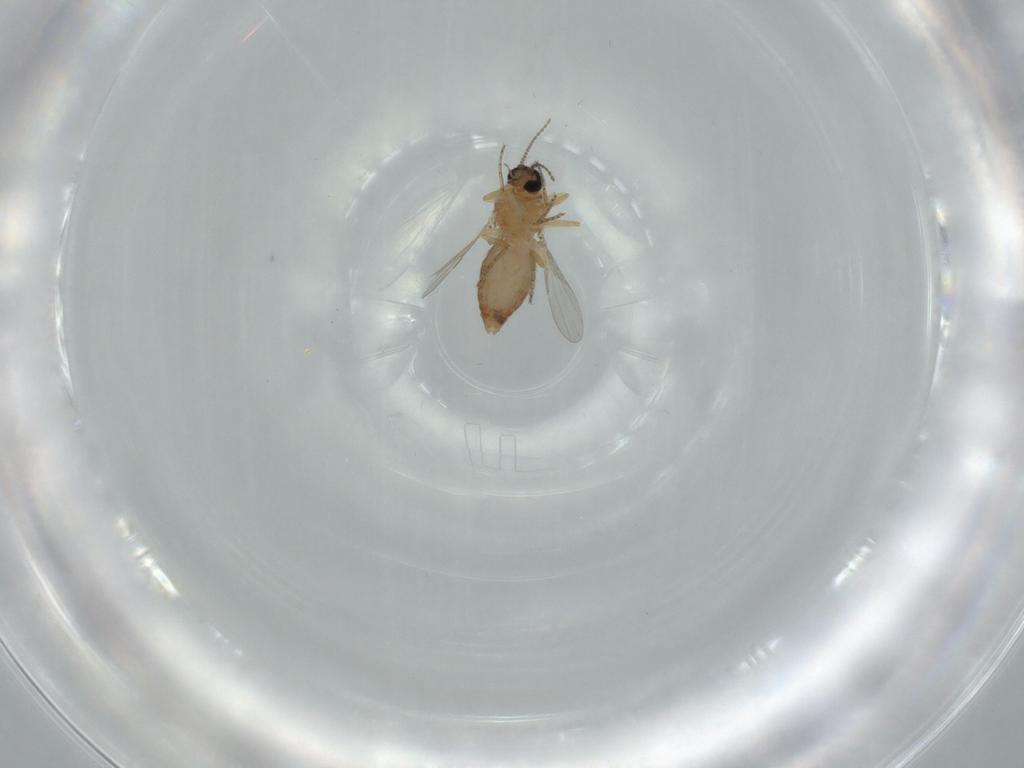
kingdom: Animalia
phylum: Arthropoda
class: Insecta
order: Diptera
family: Ceratopogonidae
